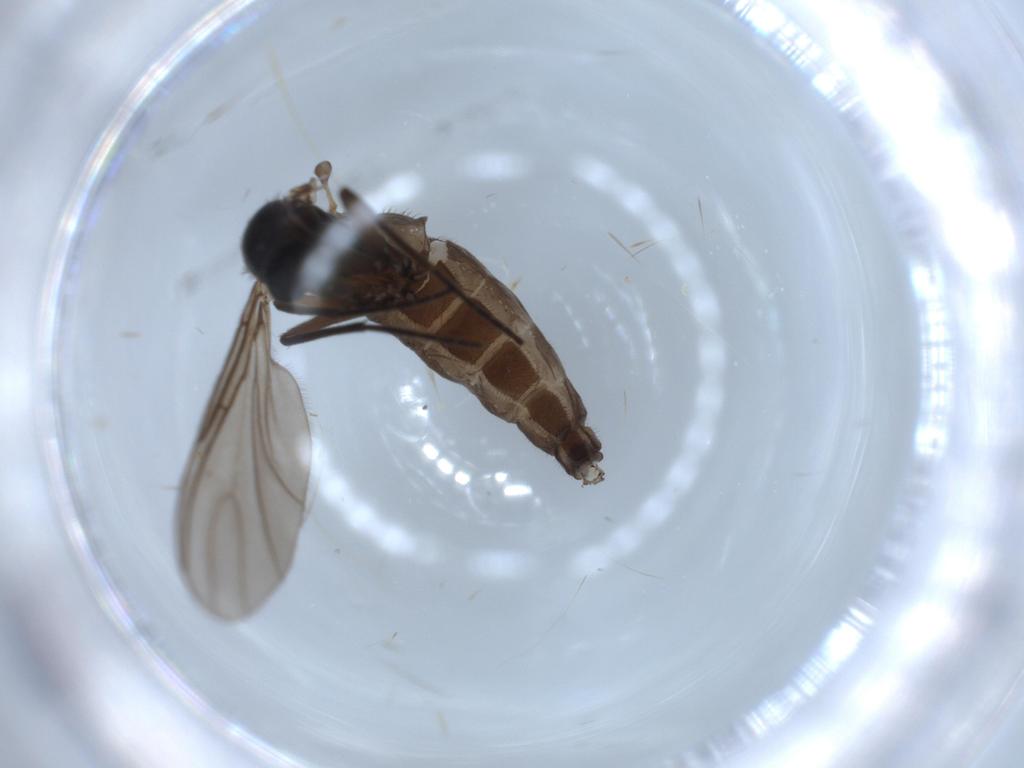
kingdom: Animalia
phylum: Arthropoda
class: Insecta
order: Diptera
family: Sciaridae
